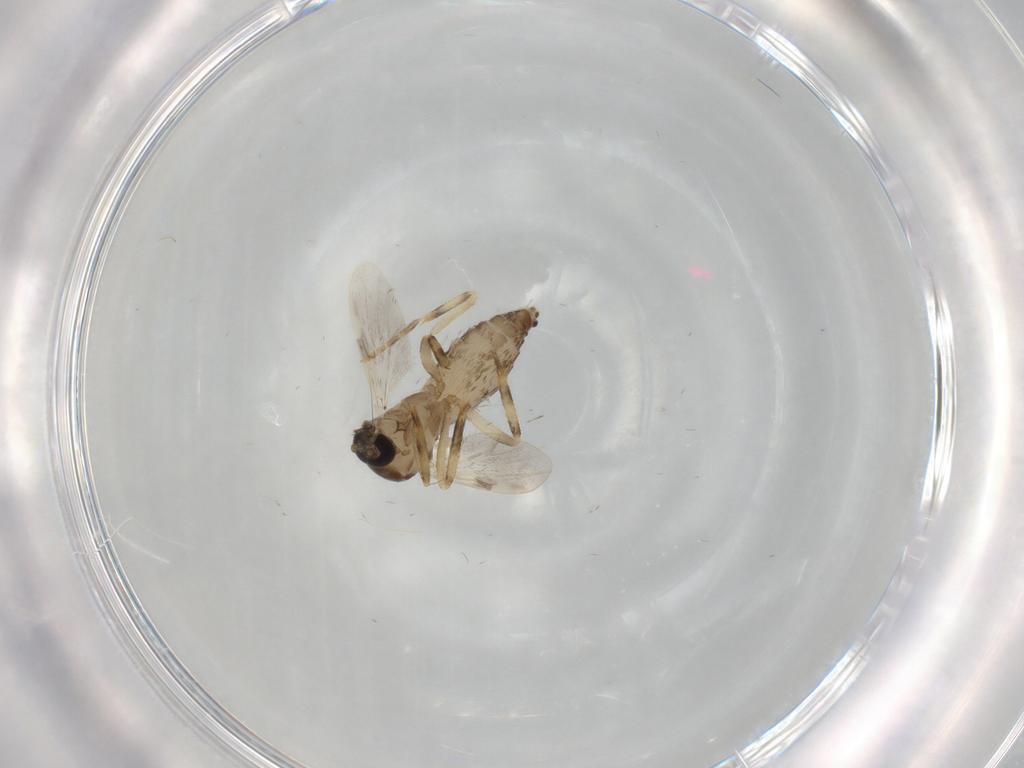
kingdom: Animalia
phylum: Arthropoda
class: Insecta
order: Diptera
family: Ceratopogonidae
